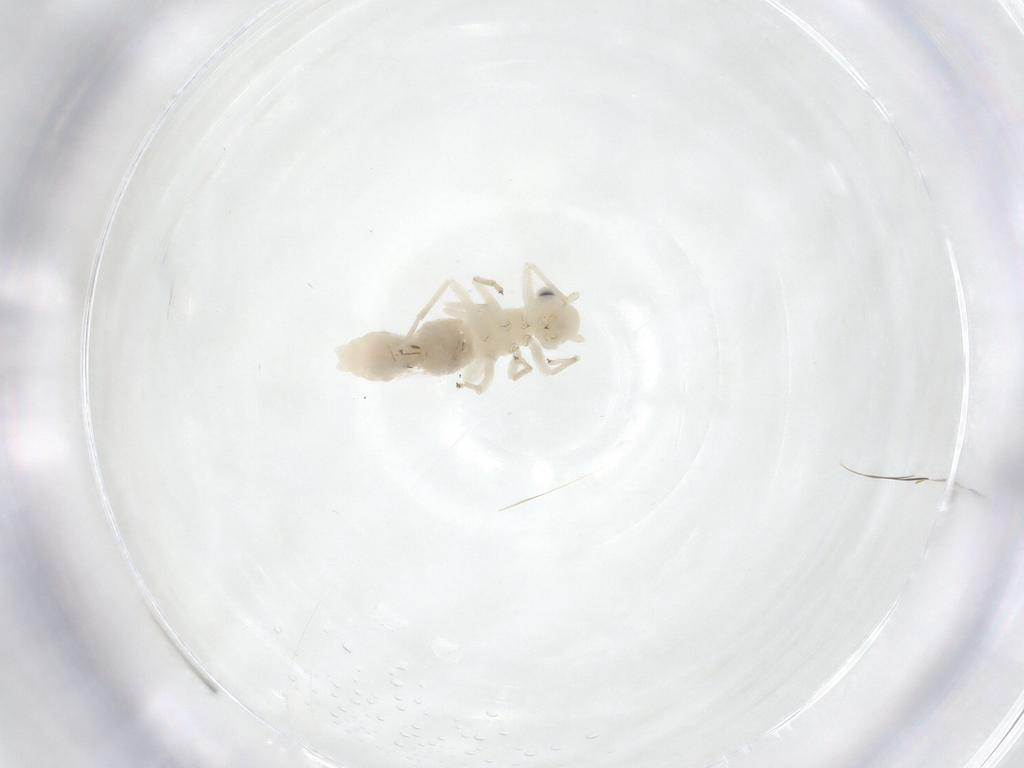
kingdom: Animalia
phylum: Arthropoda
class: Insecta
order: Psocodea
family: Caeciliusidae
